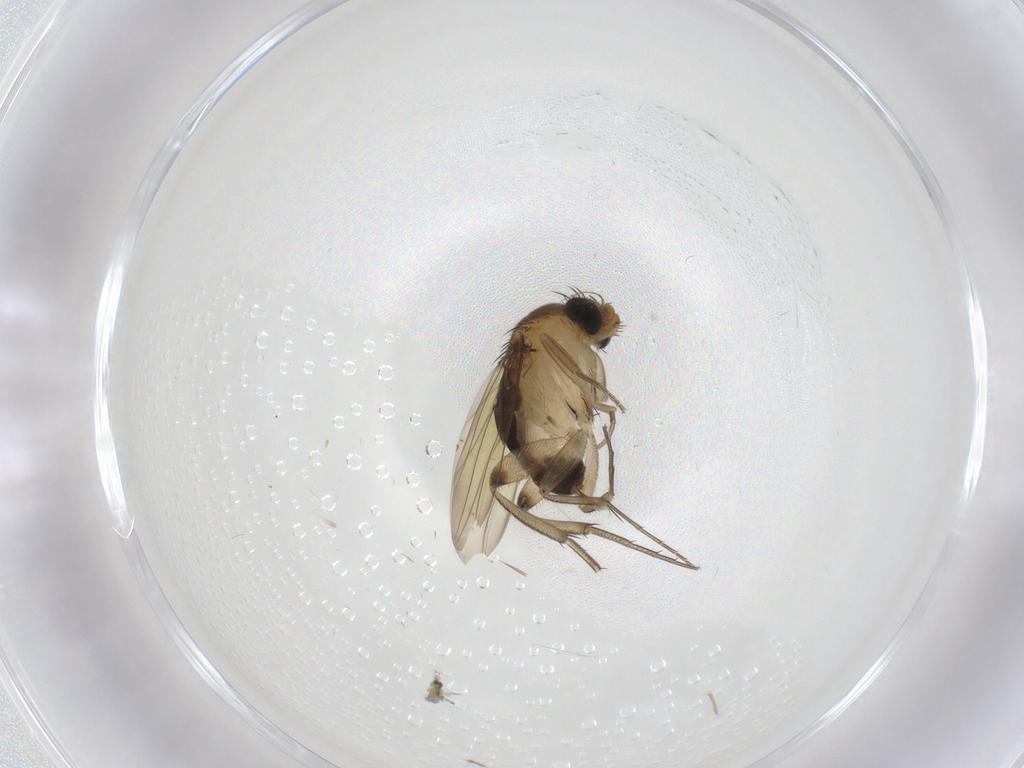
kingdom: Animalia
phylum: Arthropoda
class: Insecta
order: Diptera
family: Phoridae
